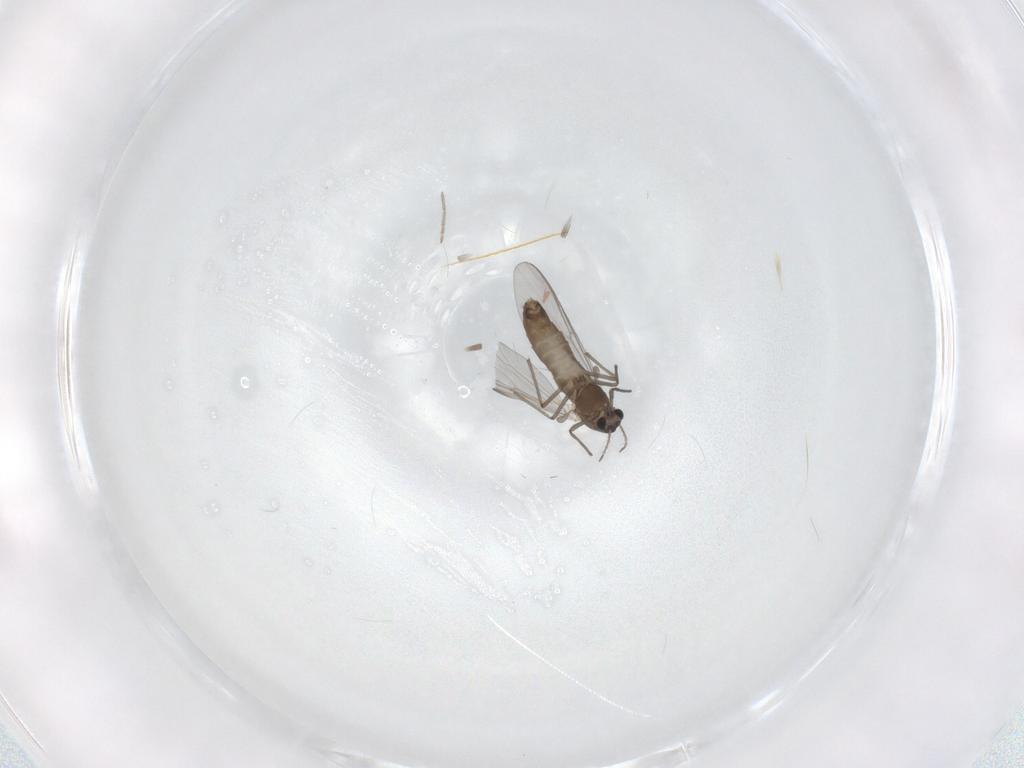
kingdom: Animalia
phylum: Arthropoda
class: Insecta
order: Diptera
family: Chironomidae
